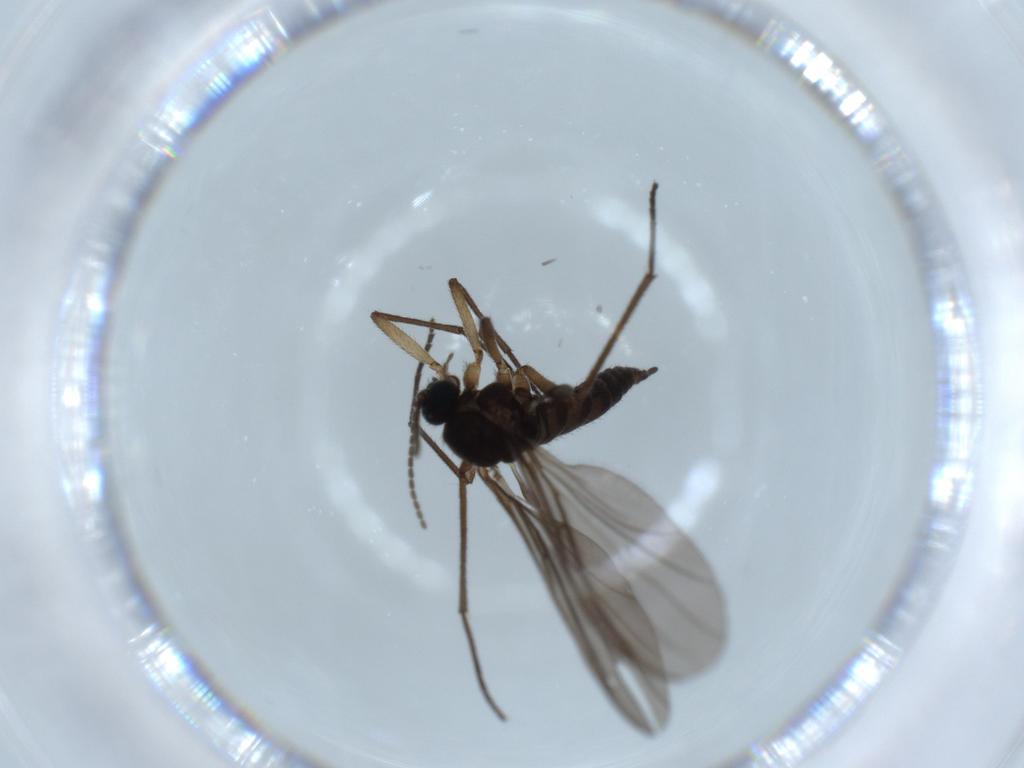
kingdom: Animalia
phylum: Arthropoda
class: Insecta
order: Diptera
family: Sciaridae
